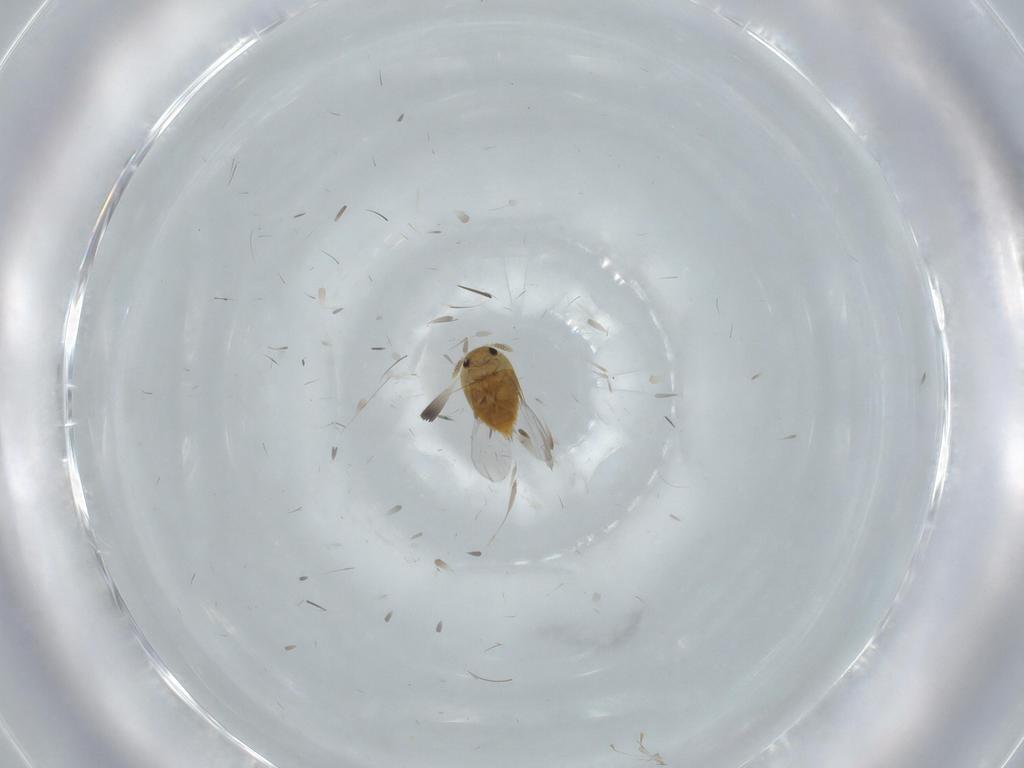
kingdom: Animalia
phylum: Arthropoda
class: Insecta
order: Coleoptera
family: Staphylinidae
